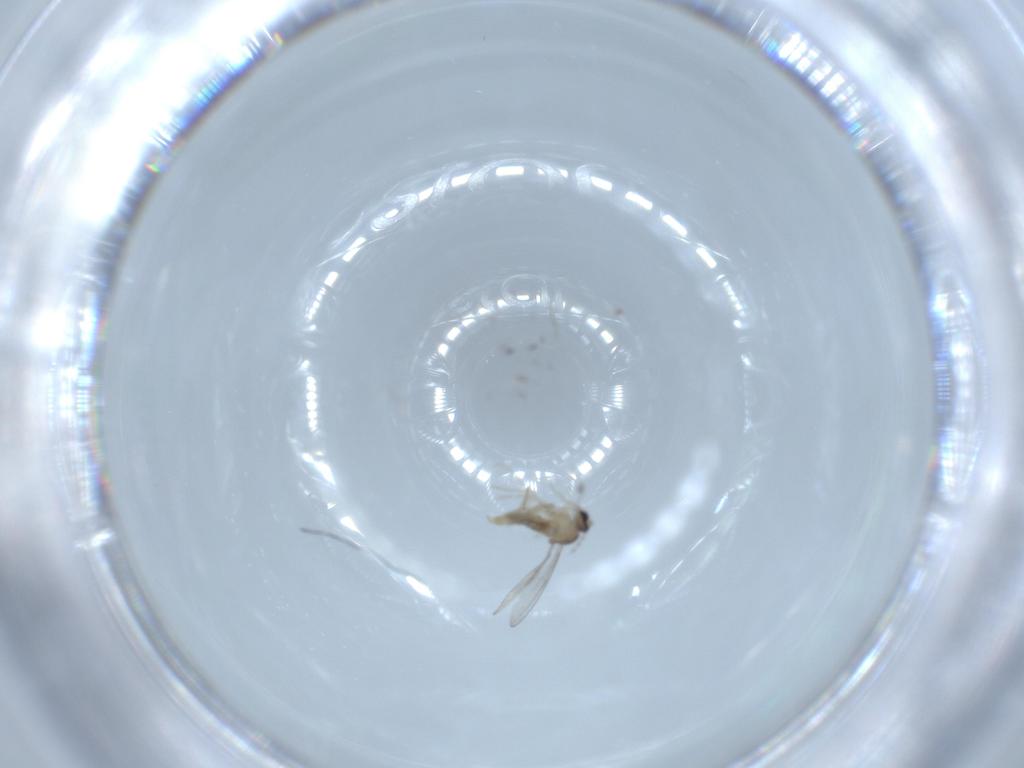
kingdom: Animalia
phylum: Arthropoda
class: Insecta
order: Diptera
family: Cecidomyiidae
